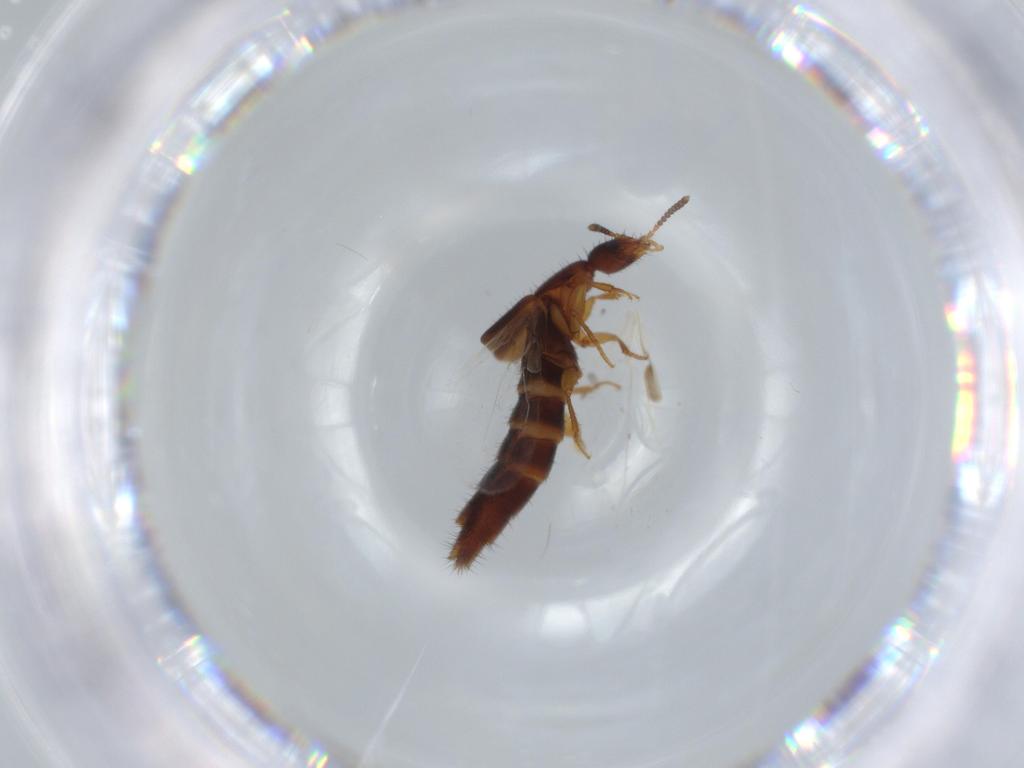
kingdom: Animalia
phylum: Arthropoda
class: Insecta
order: Coleoptera
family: Staphylinidae
